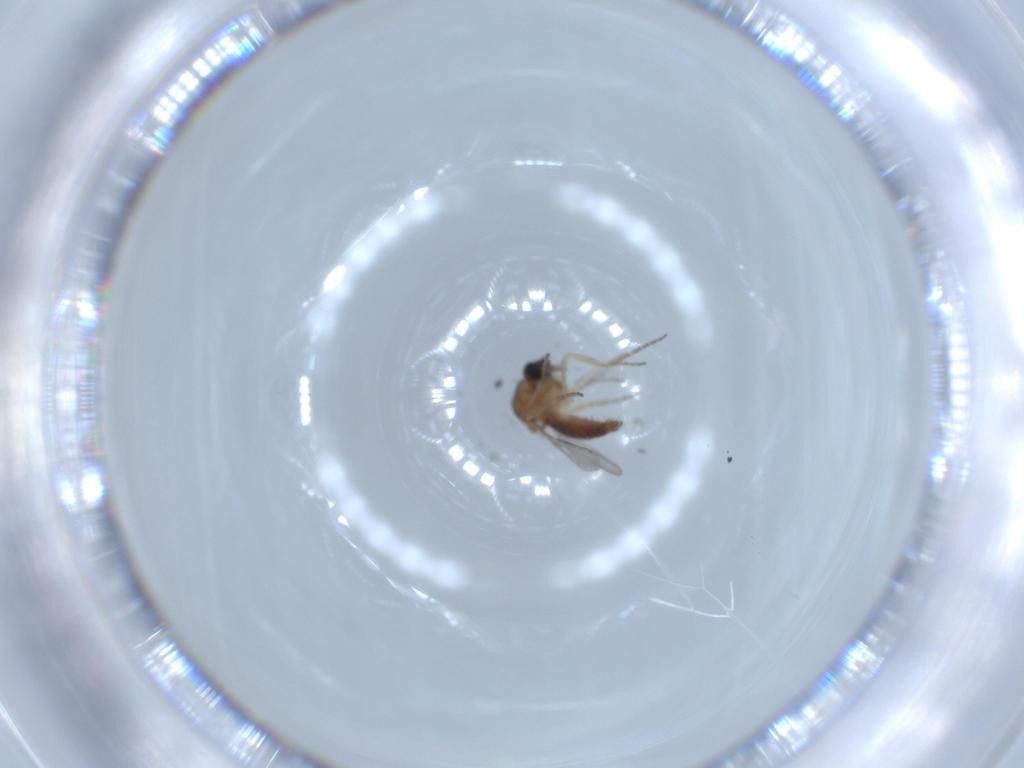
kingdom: Animalia
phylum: Arthropoda
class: Insecta
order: Diptera
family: Ceratopogonidae
